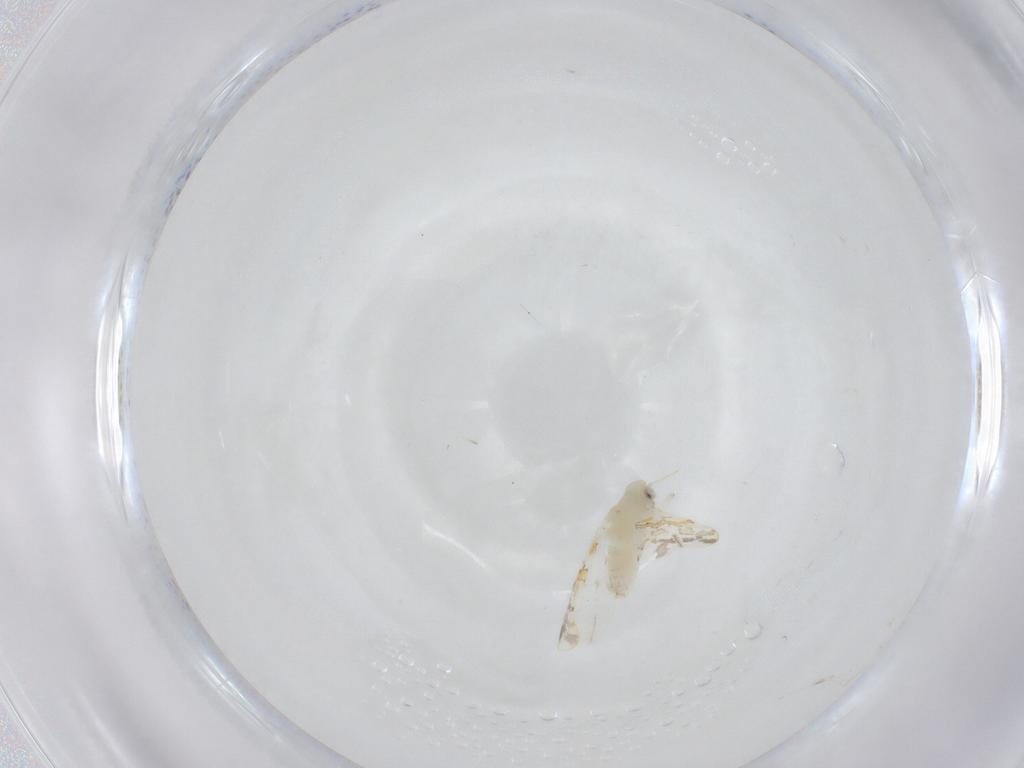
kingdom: Animalia
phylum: Arthropoda
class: Insecta
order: Hemiptera
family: Aleyrodidae
